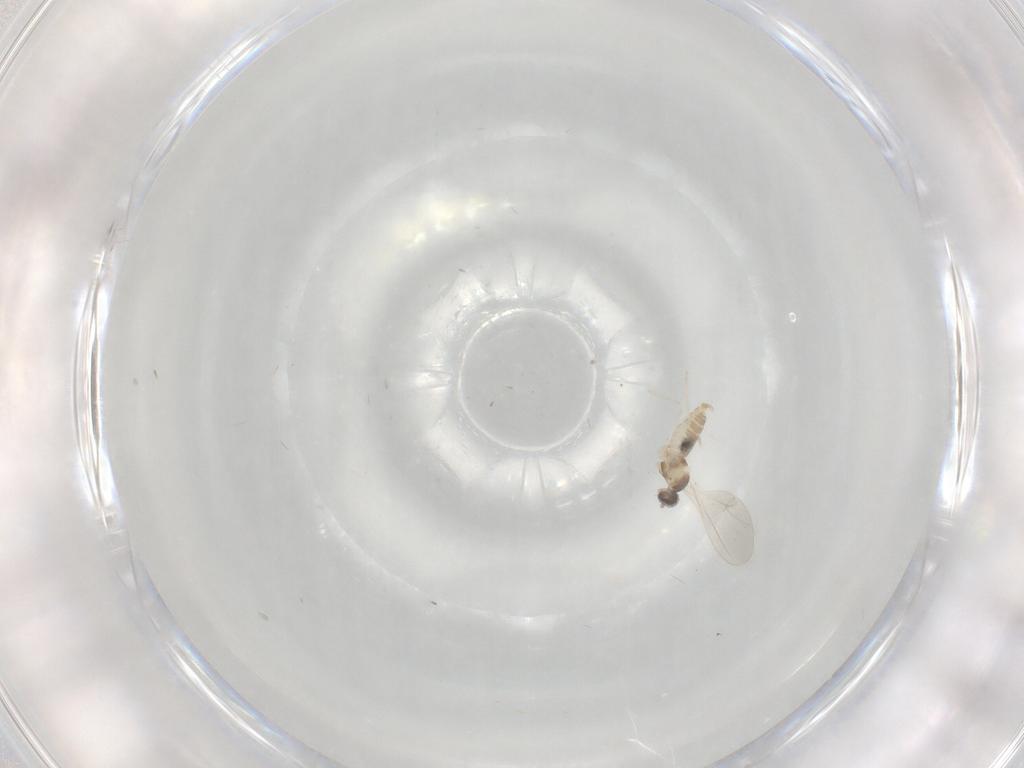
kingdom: Animalia
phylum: Arthropoda
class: Insecta
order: Diptera
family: Cecidomyiidae
